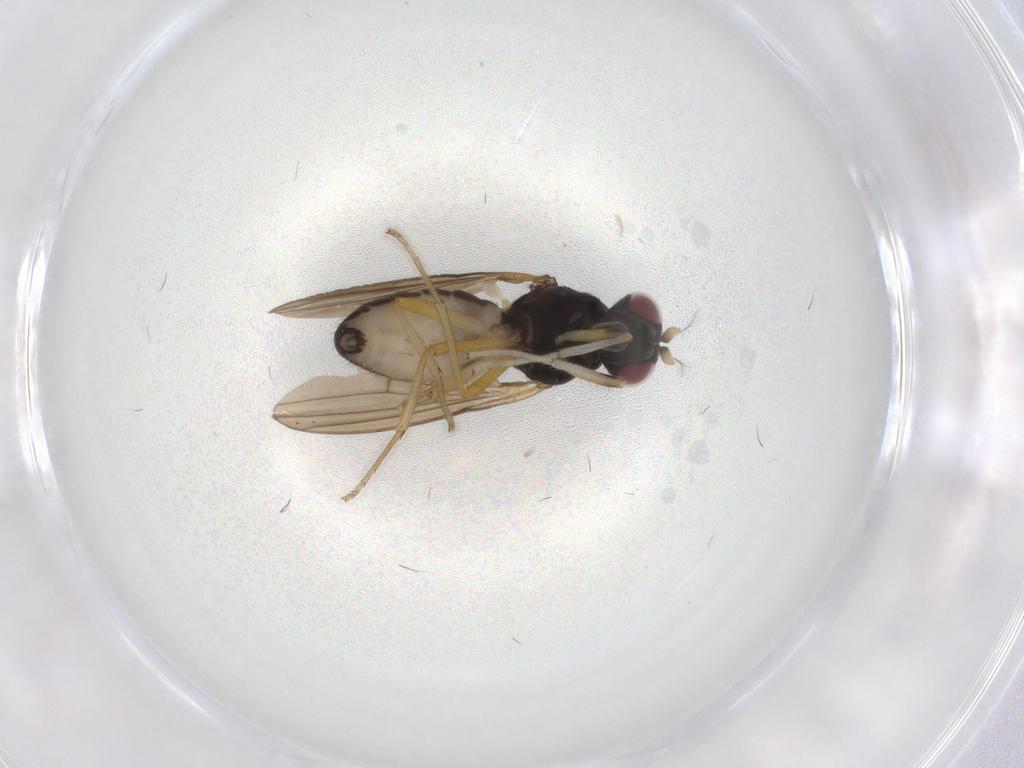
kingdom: Animalia
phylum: Arthropoda
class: Insecta
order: Diptera
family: Lauxaniidae
